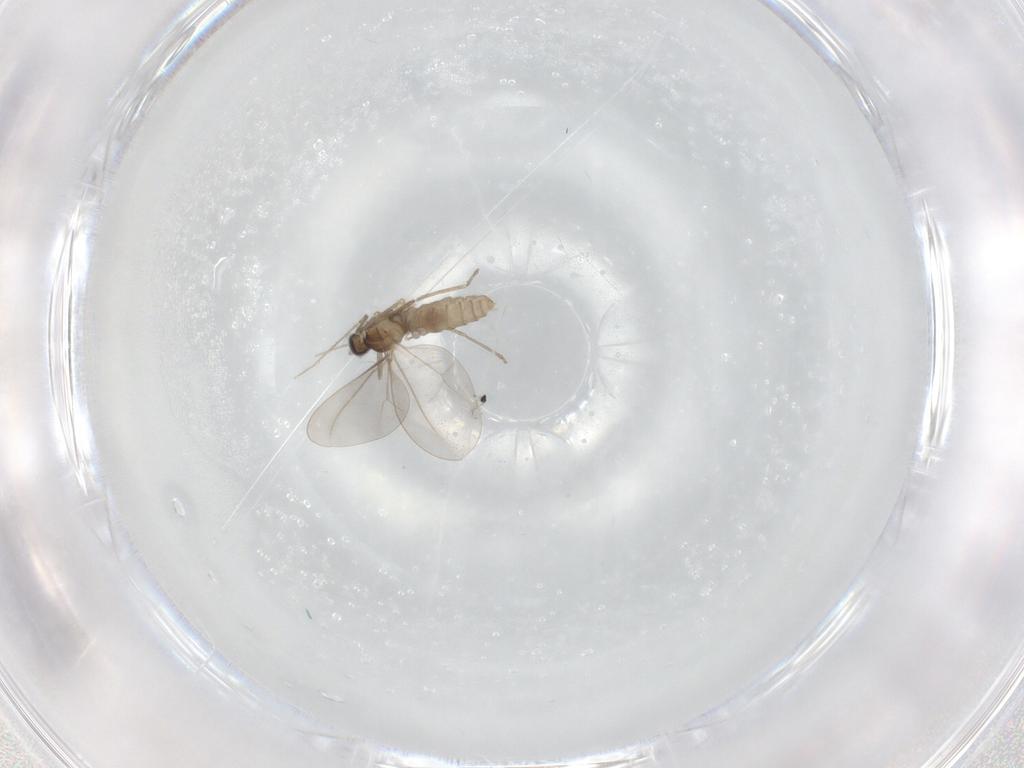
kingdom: Animalia
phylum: Arthropoda
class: Insecta
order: Diptera
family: Cecidomyiidae
